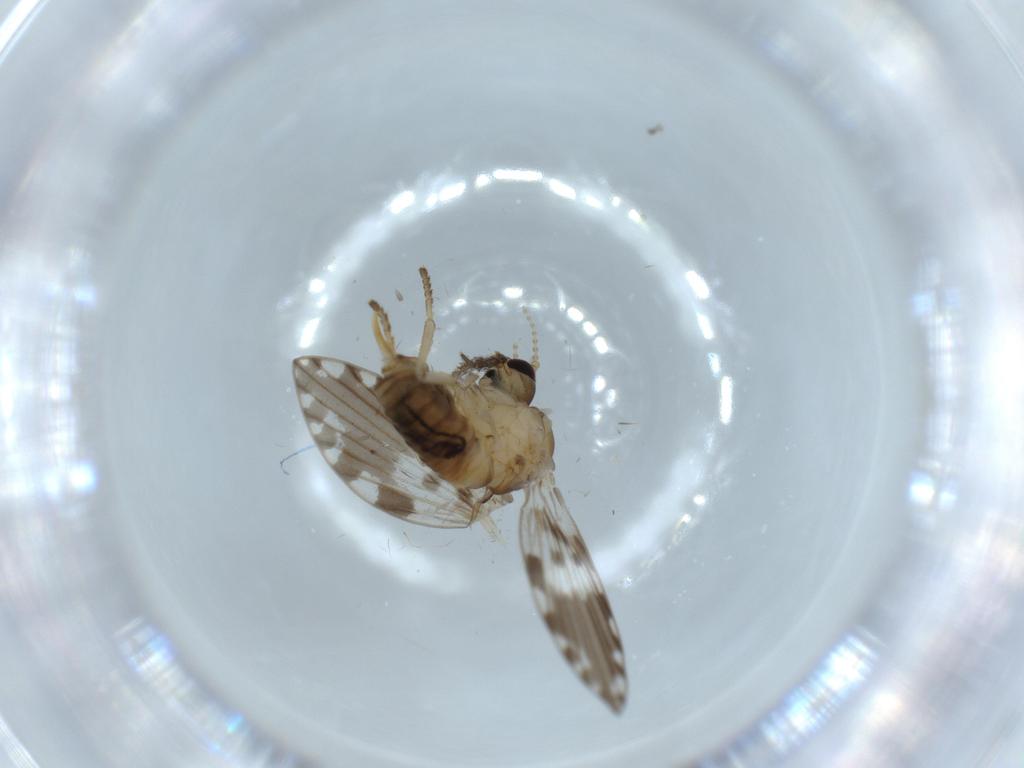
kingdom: Animalia
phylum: Arthropoda
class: Insecta
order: Diptera
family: Psychodidae
